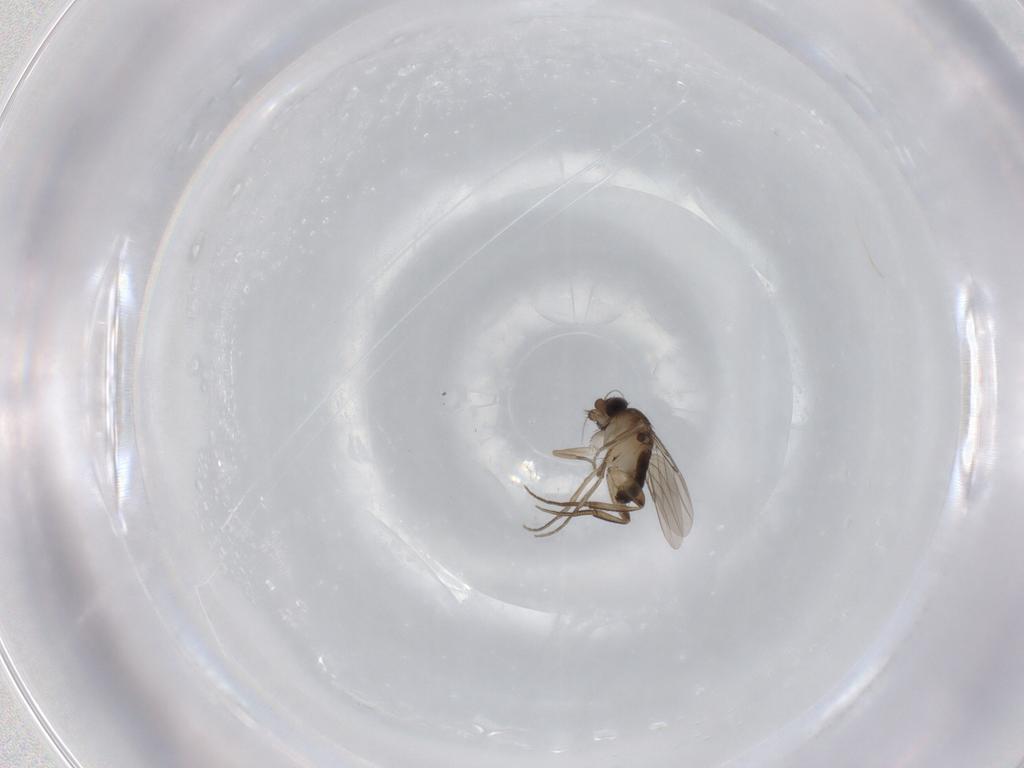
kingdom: Animalia
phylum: Arthropoda
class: Insecta
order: Diptera
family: Phoridae
